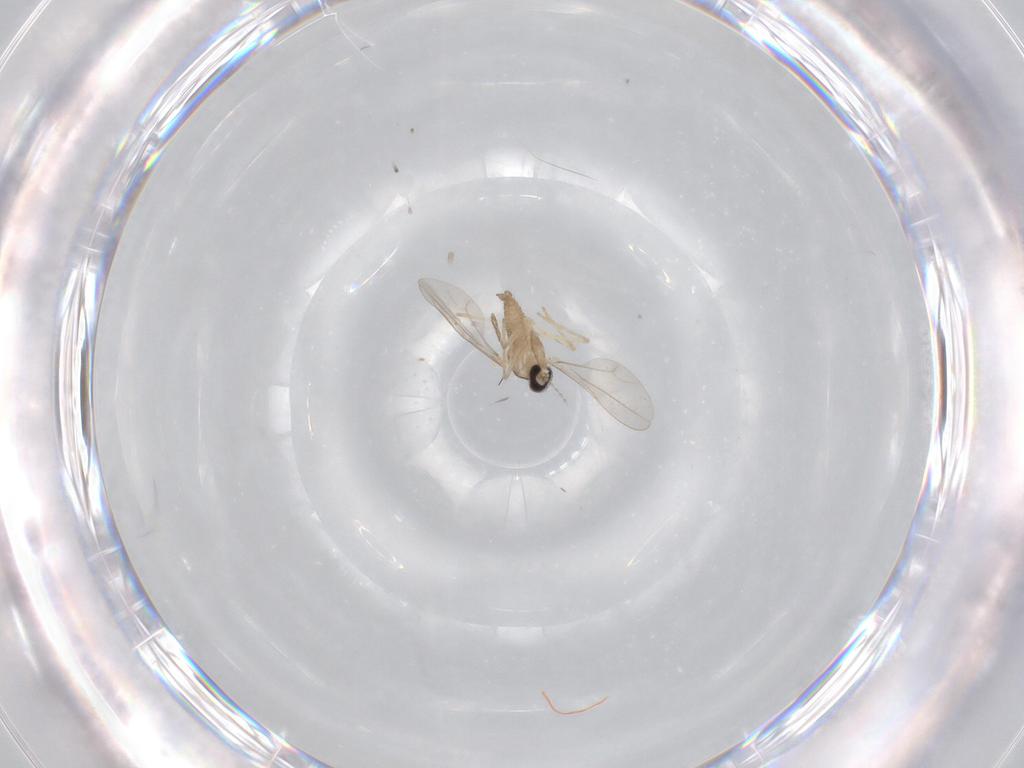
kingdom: Animalia
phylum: Arthropoda
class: Insecta
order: Diptera
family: Cecidomyiidae
